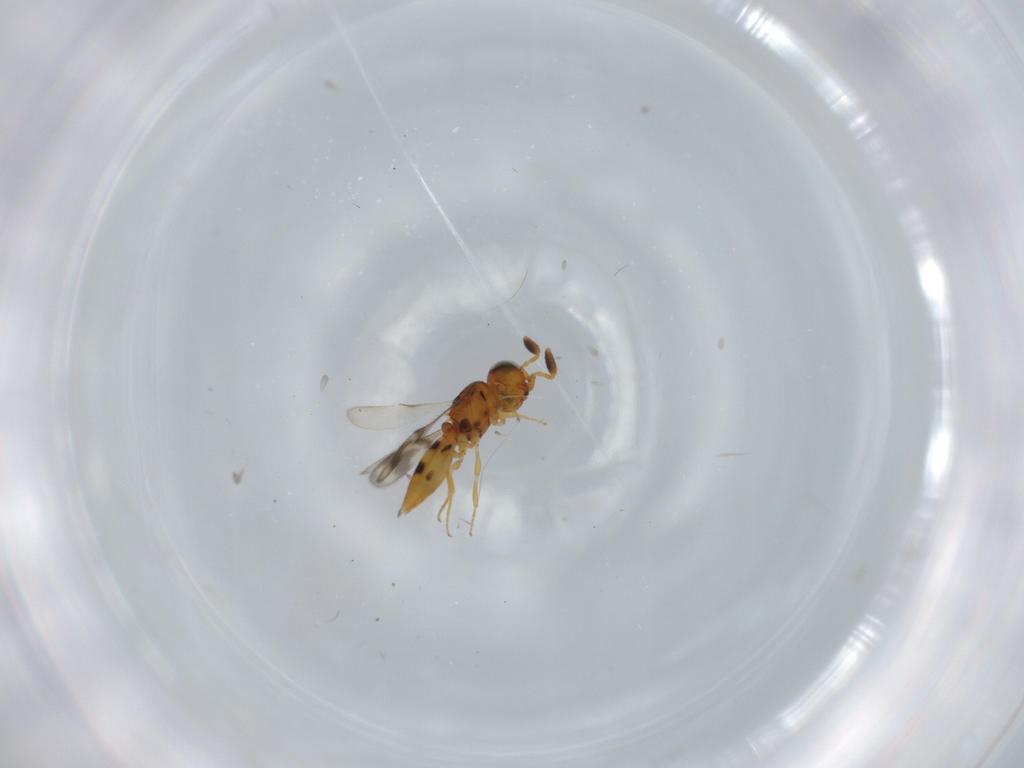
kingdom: Animalia
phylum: Arthropoda
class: Insecta
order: Hymenoptera
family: Scelionidae
